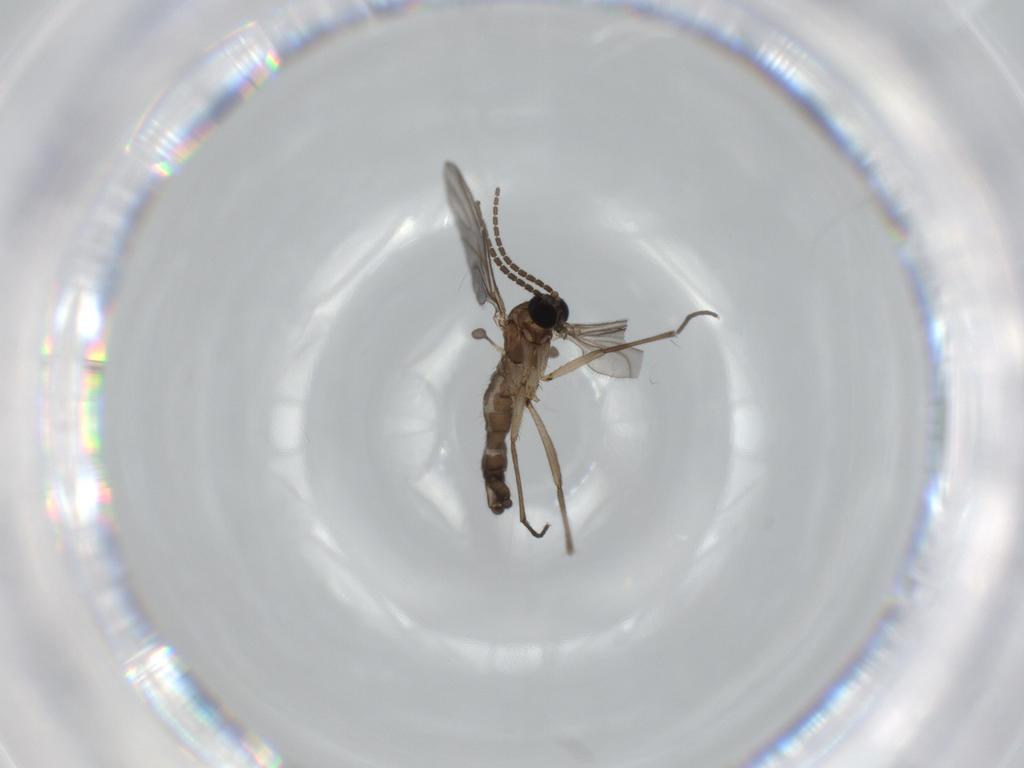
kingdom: Animalia
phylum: Arthropoda
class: Insecta
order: Diptera
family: Sciaridae
